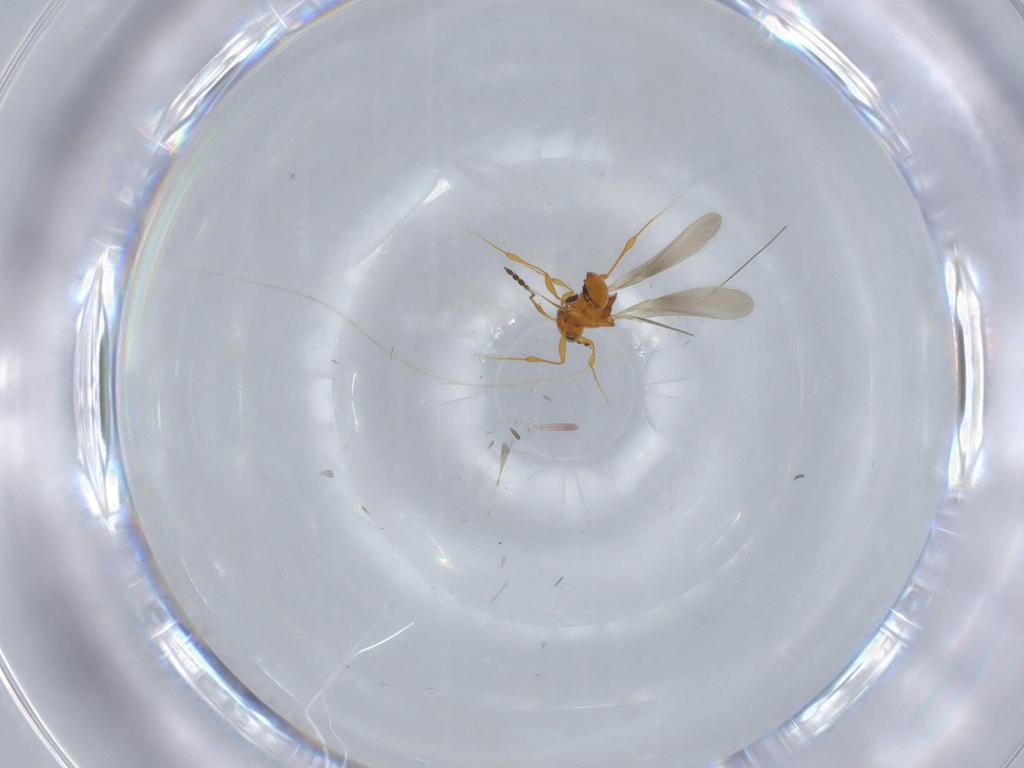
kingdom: Animalia
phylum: Arthropoda
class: Insecta
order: Hymenoptera
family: Platygastridae
